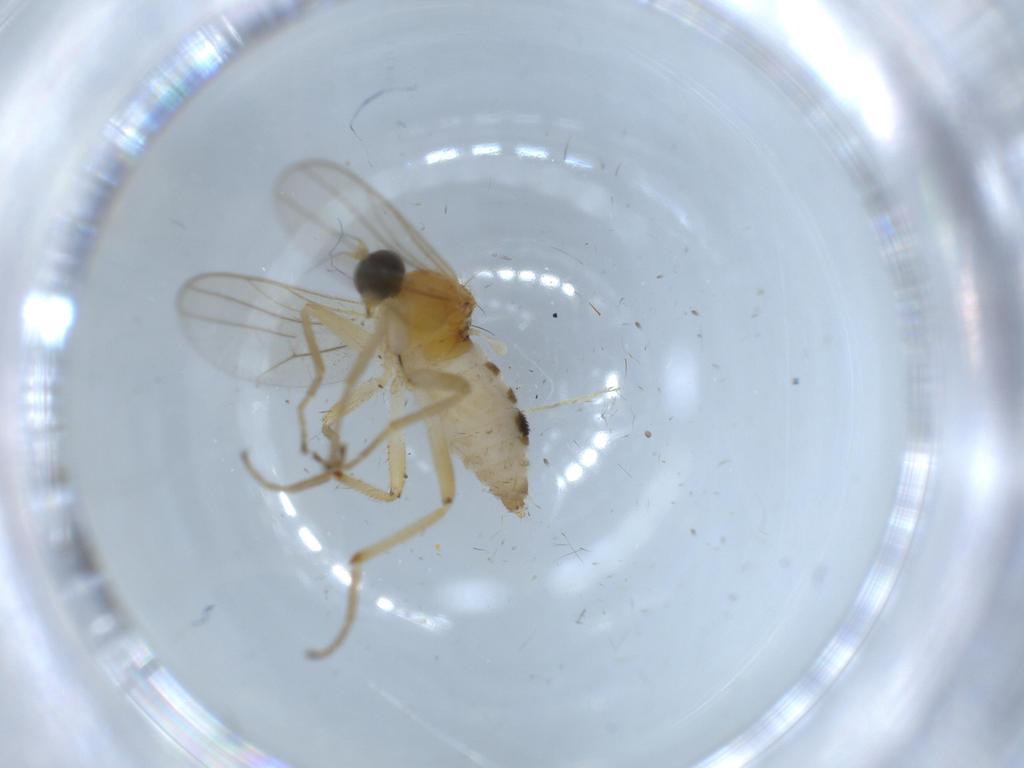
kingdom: Animalia
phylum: Arthropoda
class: Insecta
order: Diptera
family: Hybotidae
